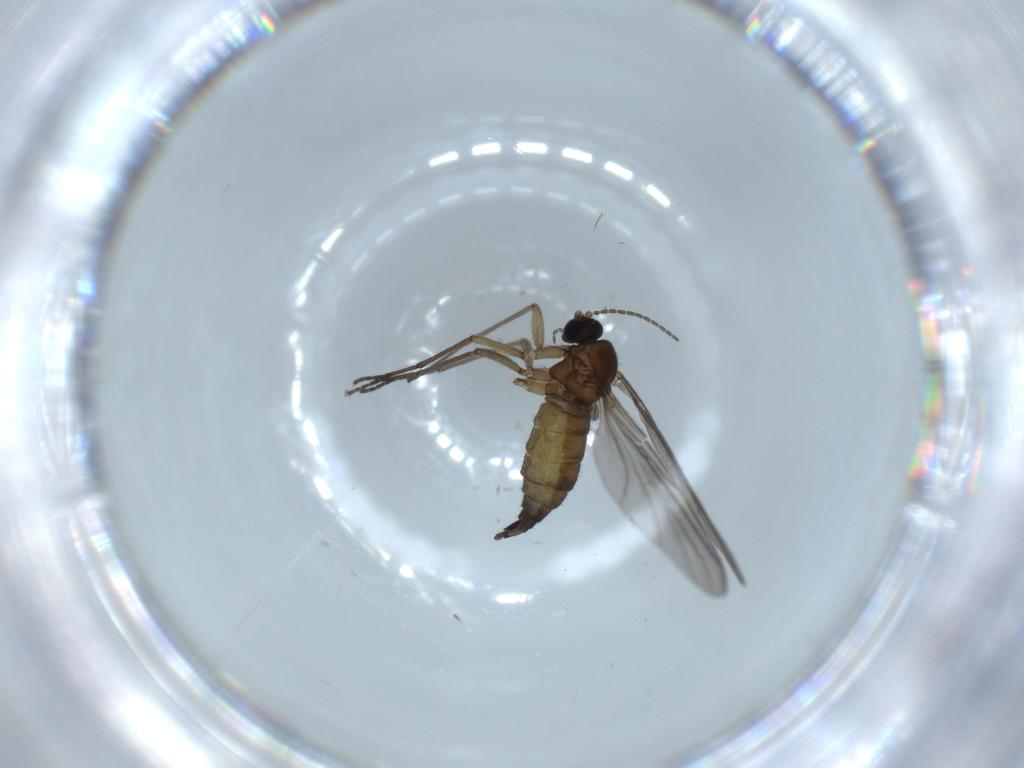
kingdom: Animalia
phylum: Arthropoda
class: Insecta
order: Diptera
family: Sciaridae
